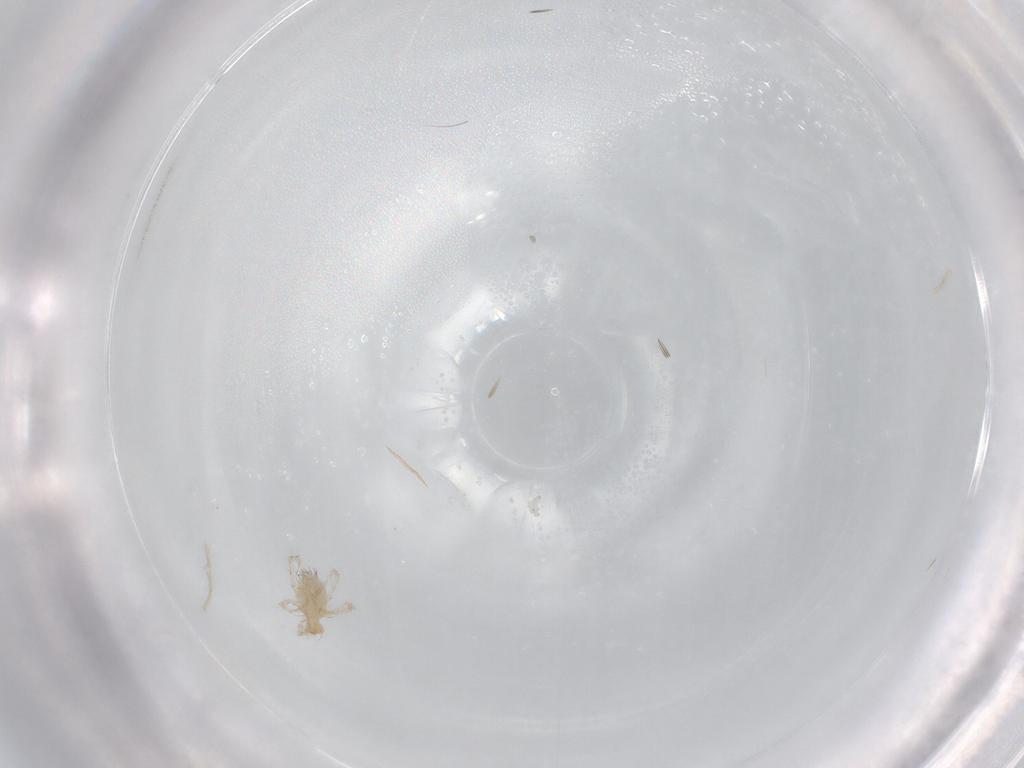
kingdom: Animalia
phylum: Arthropoda
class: Arachnida
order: Trombidiformes
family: Erythraeidae
